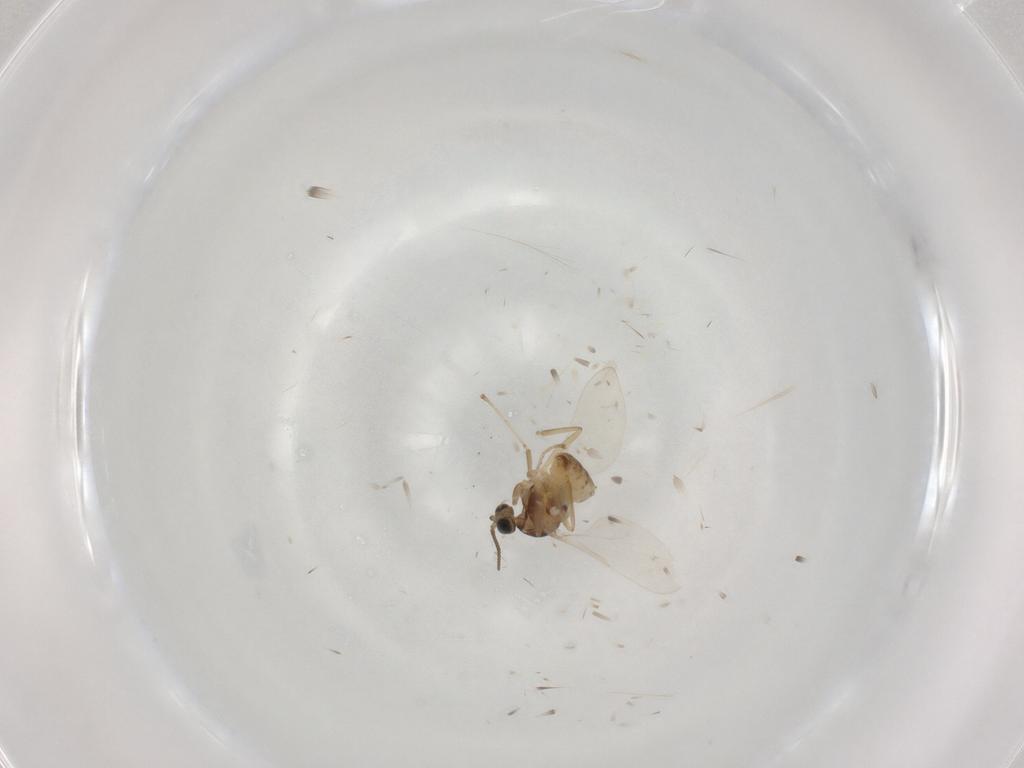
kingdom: Animalia
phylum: Arthropoda
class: Insecta
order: Diptera
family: Cecidomyiidae
